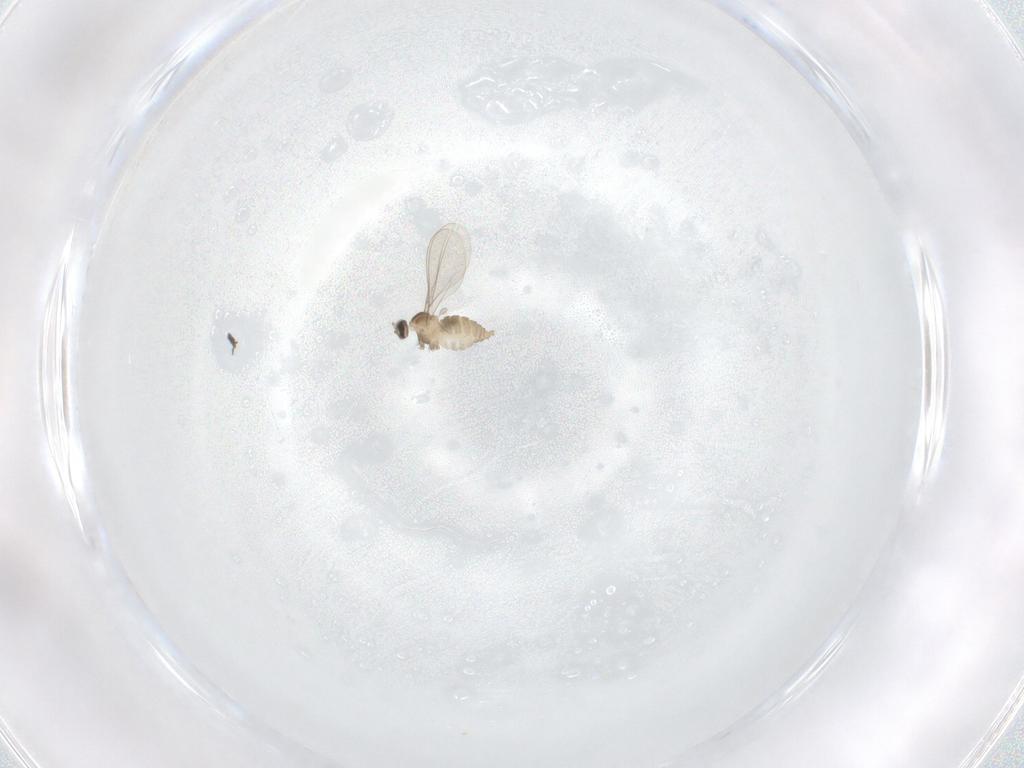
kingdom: Animalia
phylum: Arthropoda
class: Insecta
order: Diptera
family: Cecidomyiidae
